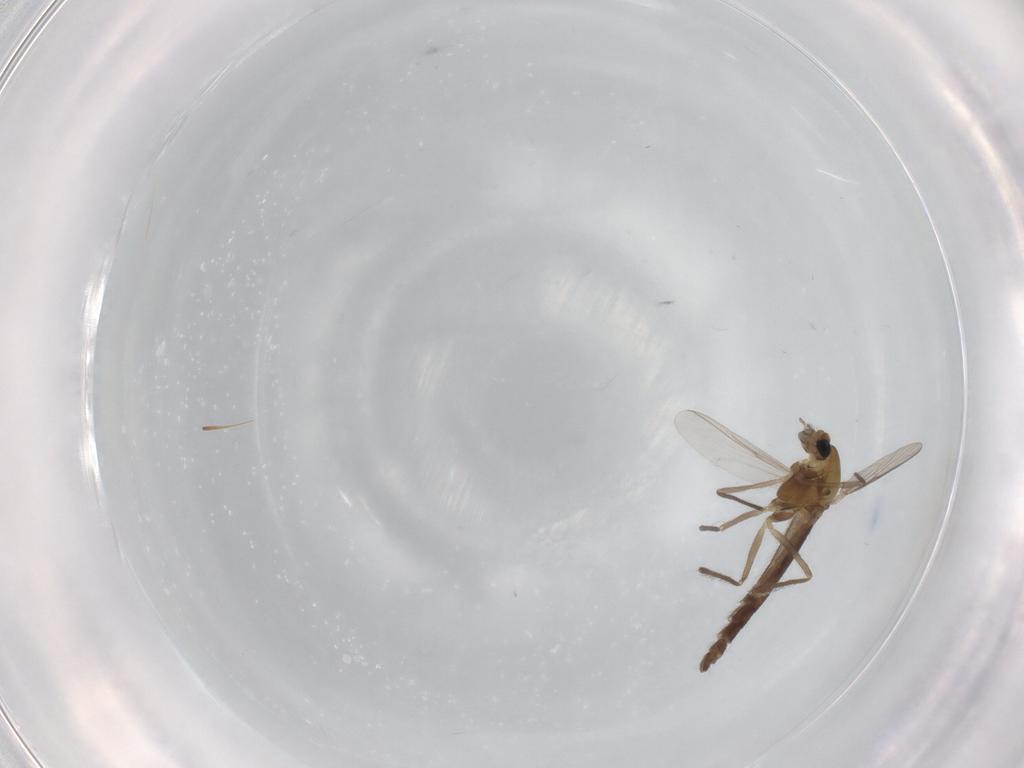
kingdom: Animalia
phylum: Arthropoda
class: Insecta
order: Diptera
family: Chironomidae
